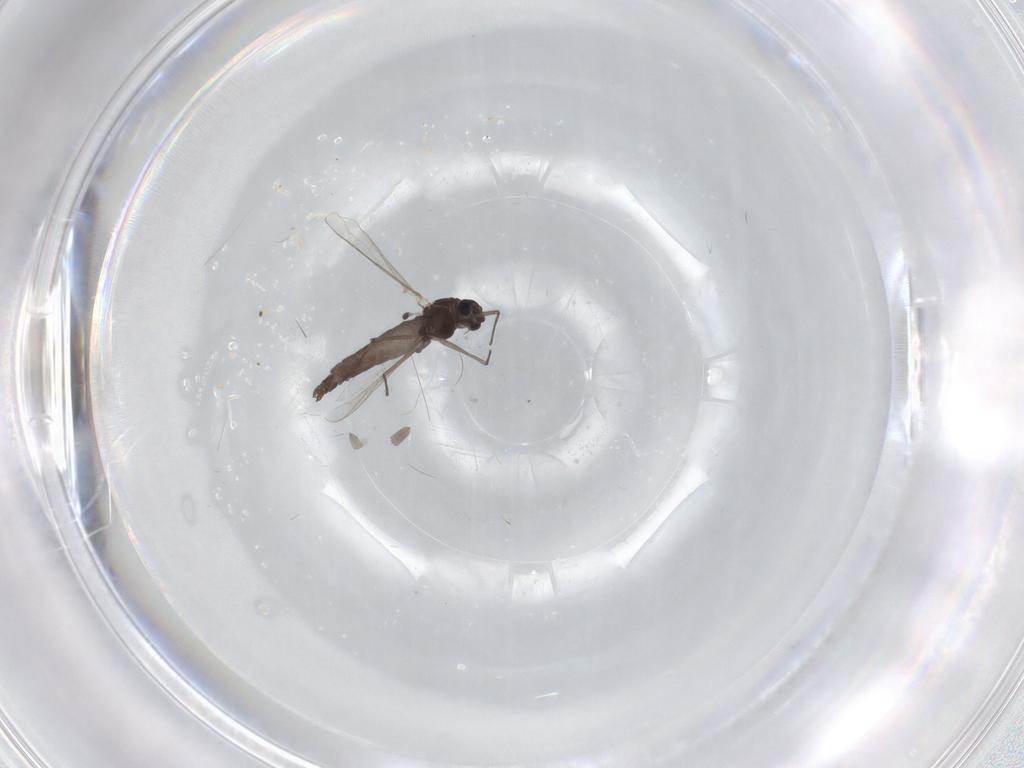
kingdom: Animalia
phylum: Arthropoda
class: Insecta
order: Diptera
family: Chironomidae
